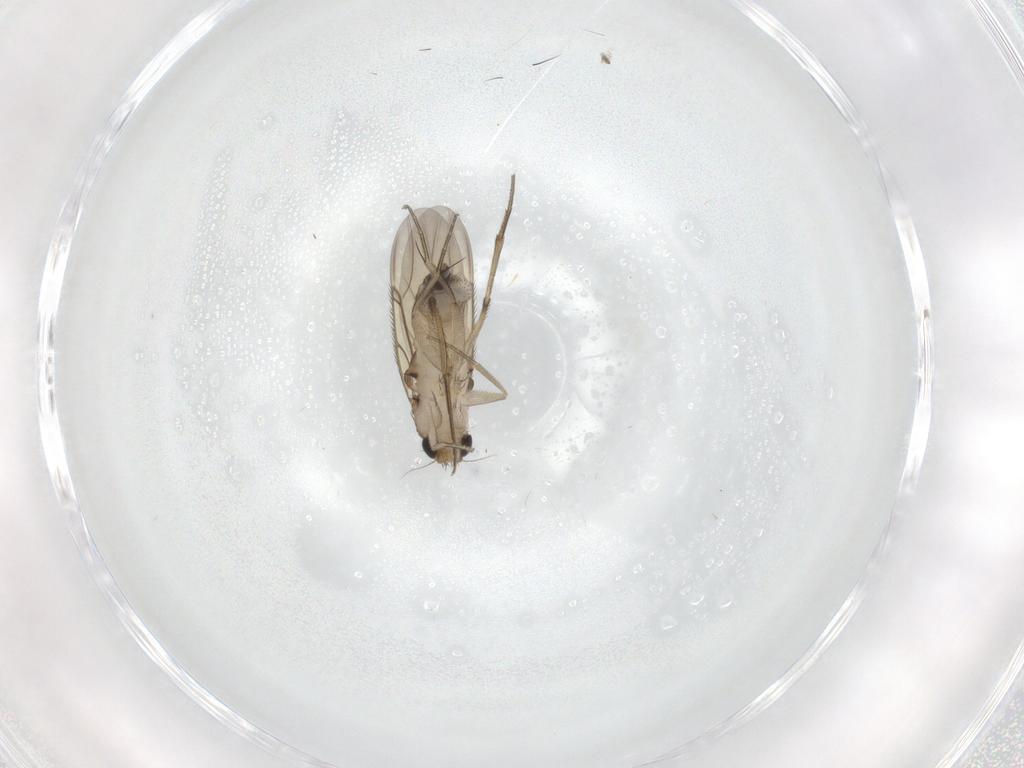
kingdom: Animalia
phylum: Arthropoda
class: Insecta
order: Diptera
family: Phoridae
